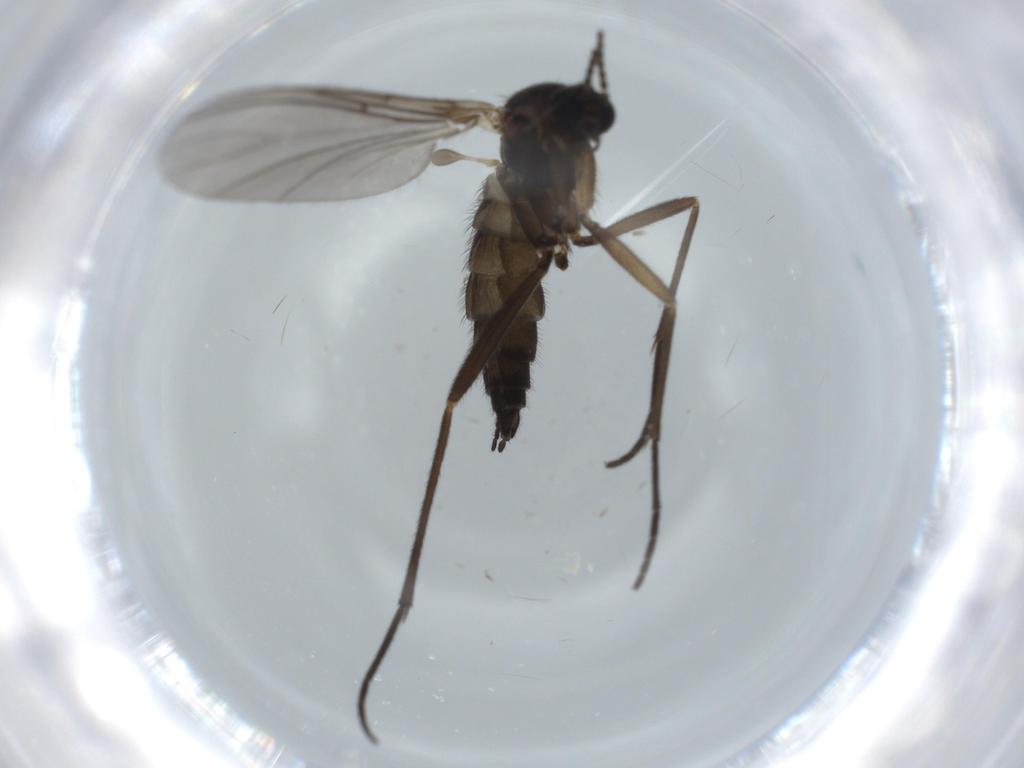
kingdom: Animalia
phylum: Arthropoda
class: Insecta
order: Diptera
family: Sciaridae
